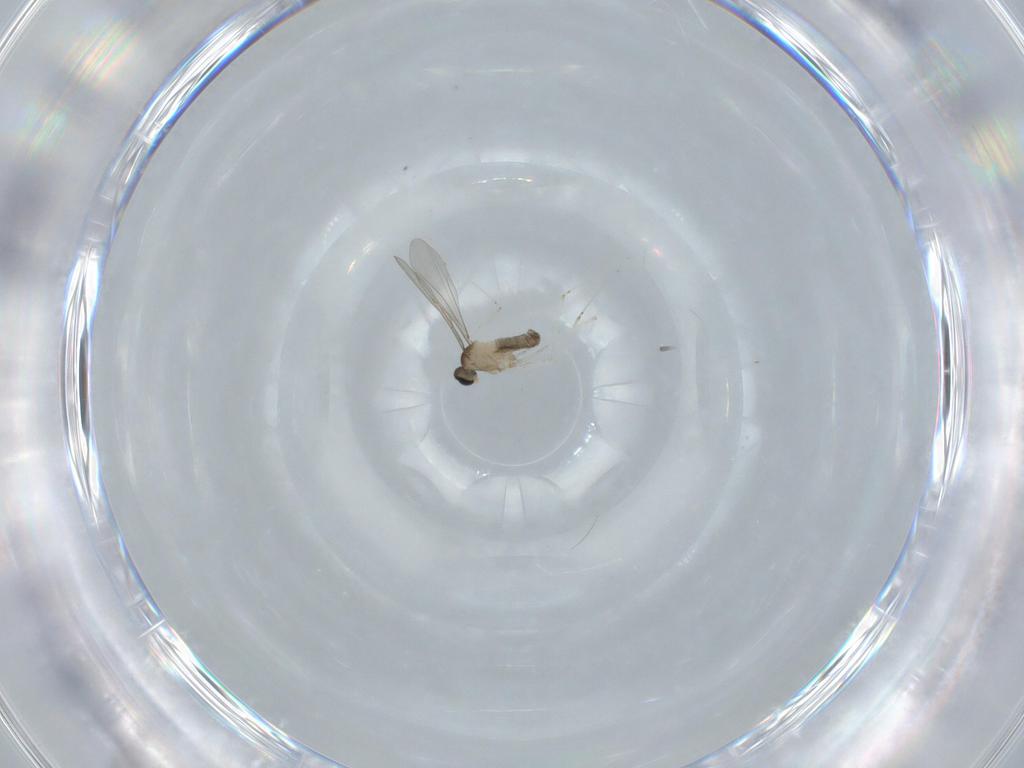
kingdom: Animalia
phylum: Arthropoda
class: Insecta
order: Diptera
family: Cecidomyiidae
